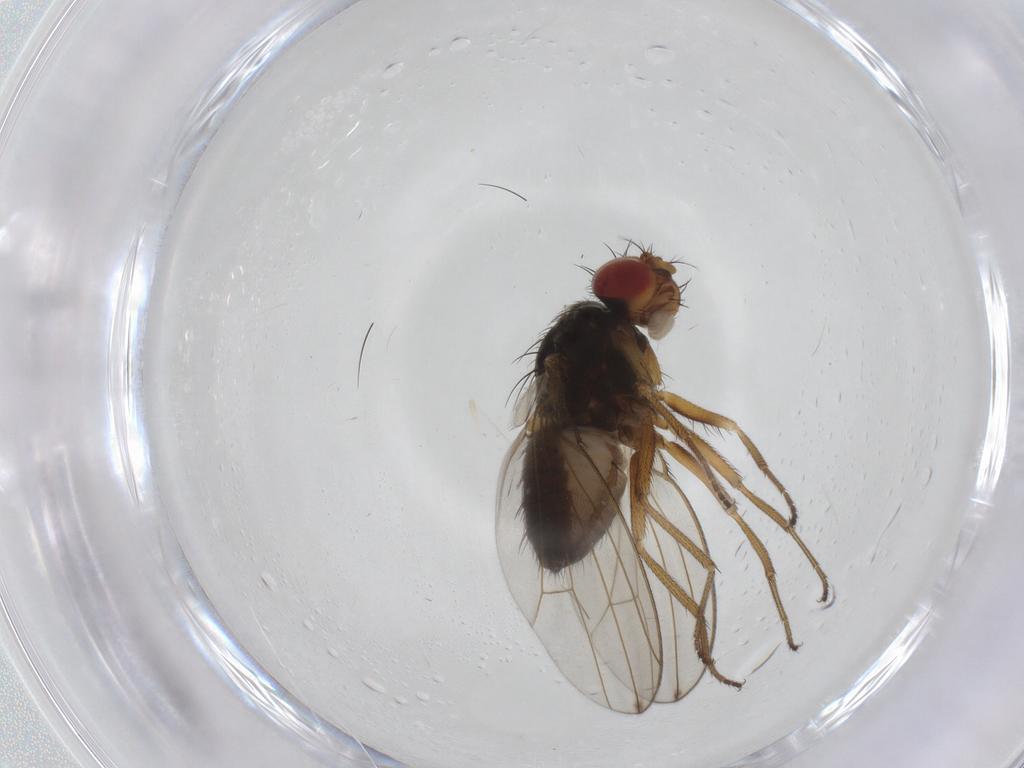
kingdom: Animalia
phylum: Arthropoda
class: Insecta
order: Diptera
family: Drosophilidae
